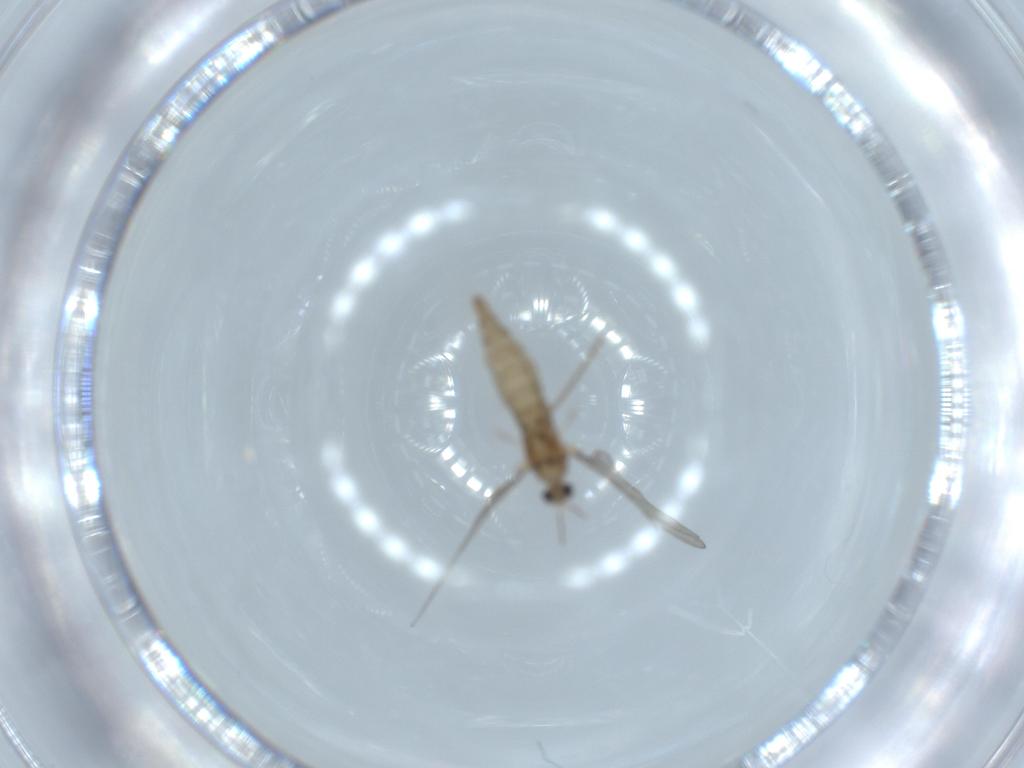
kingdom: Animalia
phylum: Arthropoda
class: Insecta
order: Diptera
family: Cecidomyiidae
